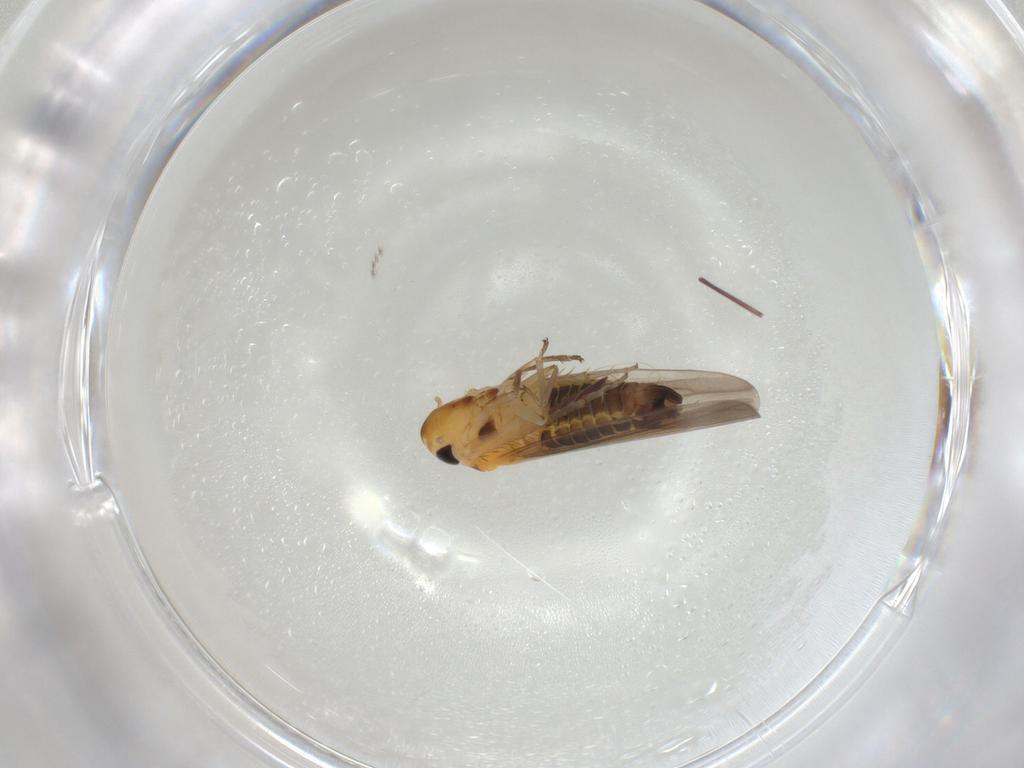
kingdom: Animalia
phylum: Arthropoda
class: Insecta
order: Hemiptera
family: Cicadellidae
